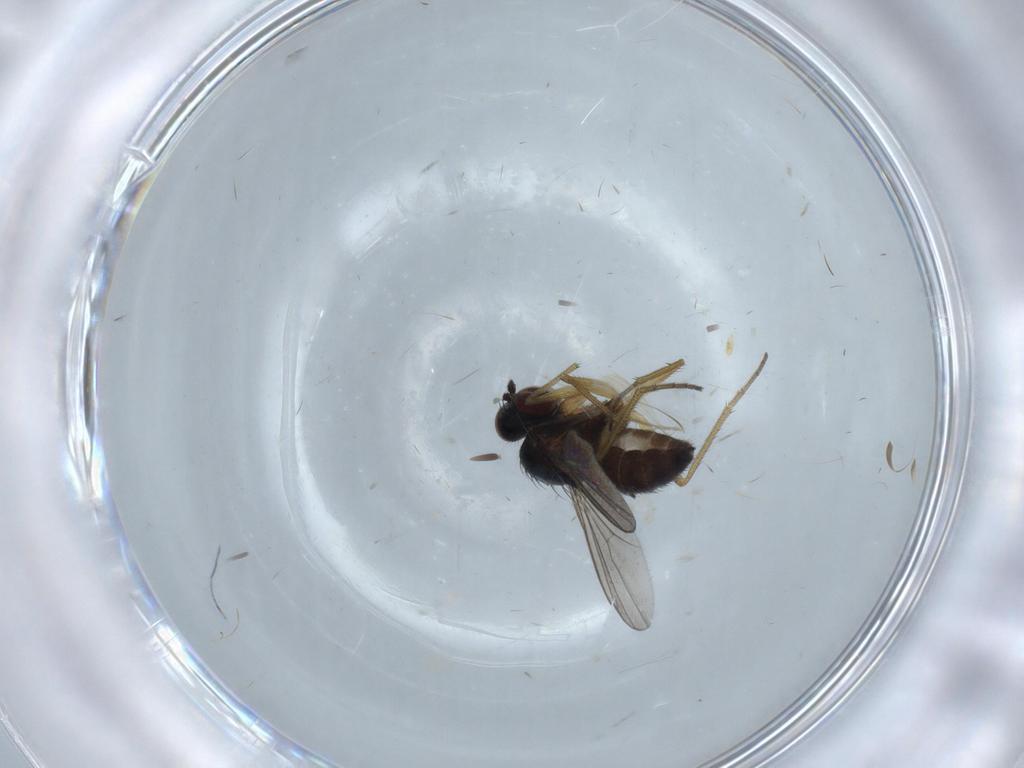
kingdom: Animalia
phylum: Arthropoda
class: Insecta
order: Diptera
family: Dolichopodidae
